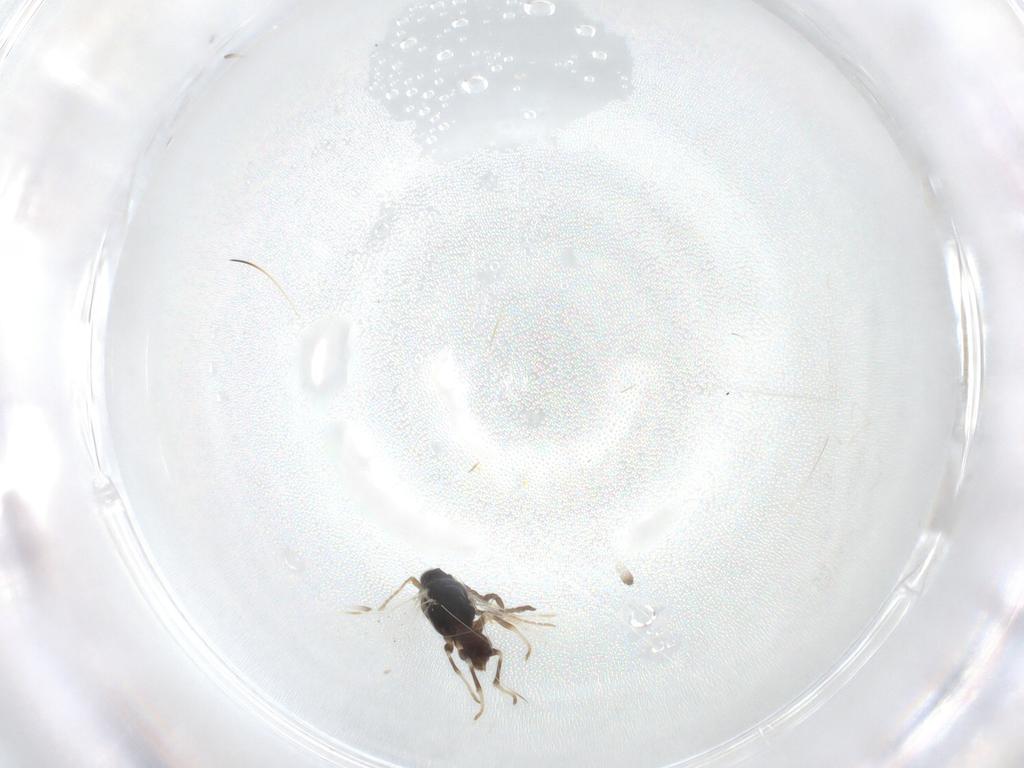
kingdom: Animalia
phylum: Arthropoda
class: Insecta
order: Hymenoptera
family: Dryinidae
